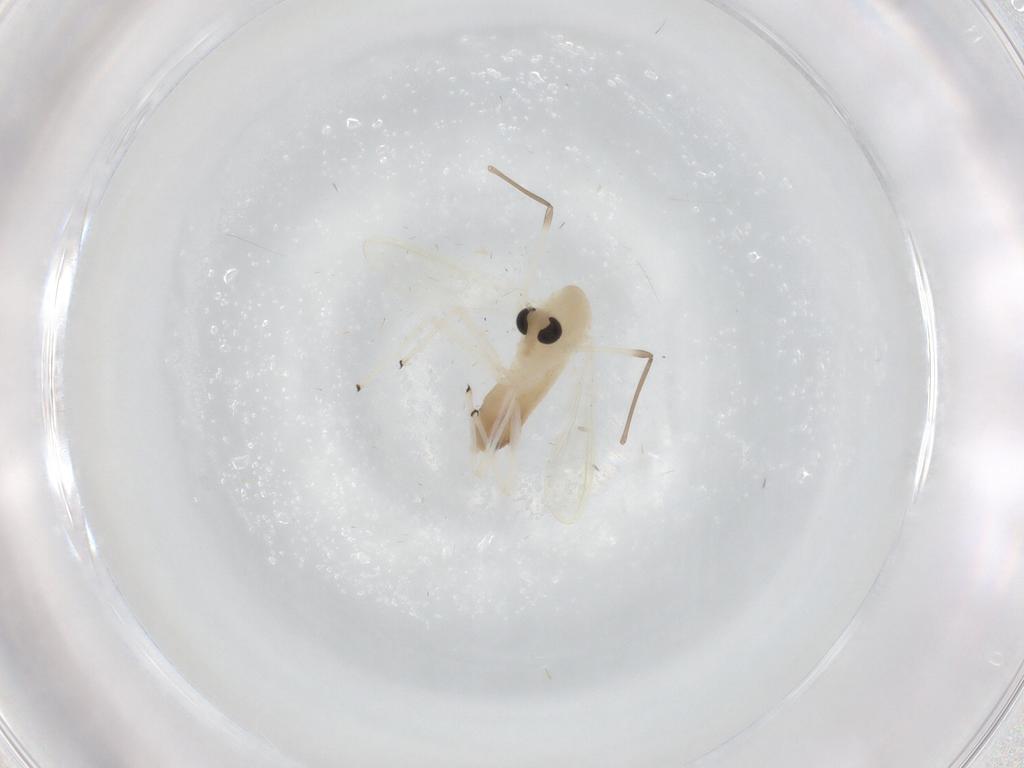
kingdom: Animalia
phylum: Arthropoda
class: Insecta
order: Diptera
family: Chironomidae
